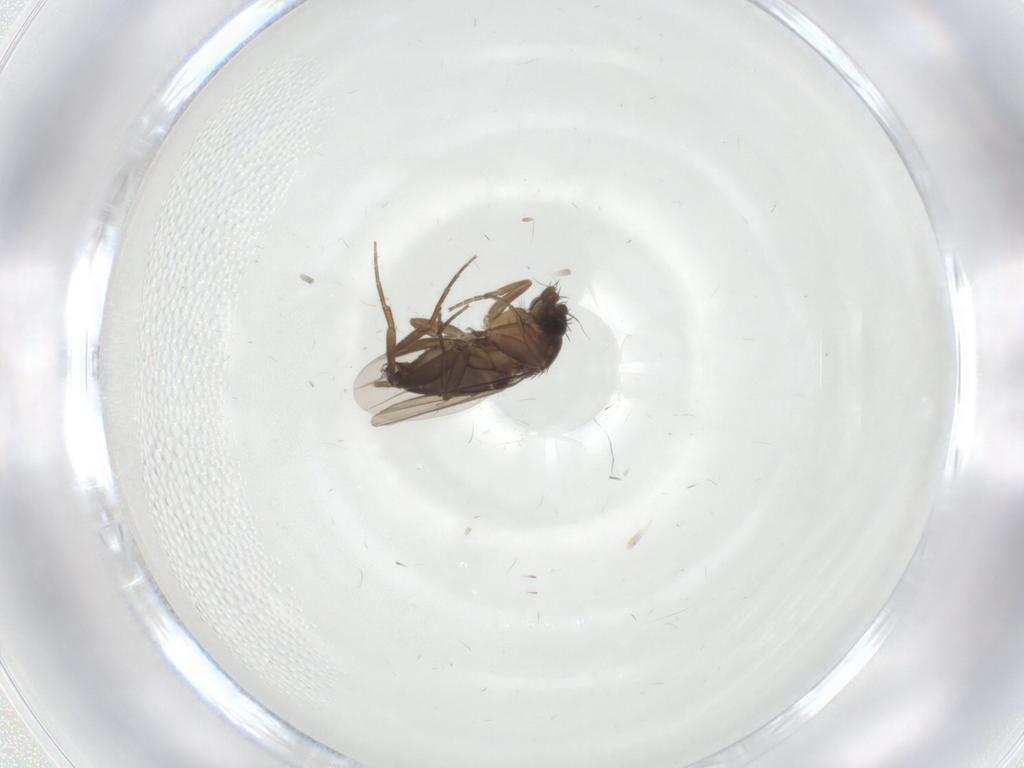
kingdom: Animalia
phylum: Arthropoda
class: Insecta
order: Diptera
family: Phoridae
